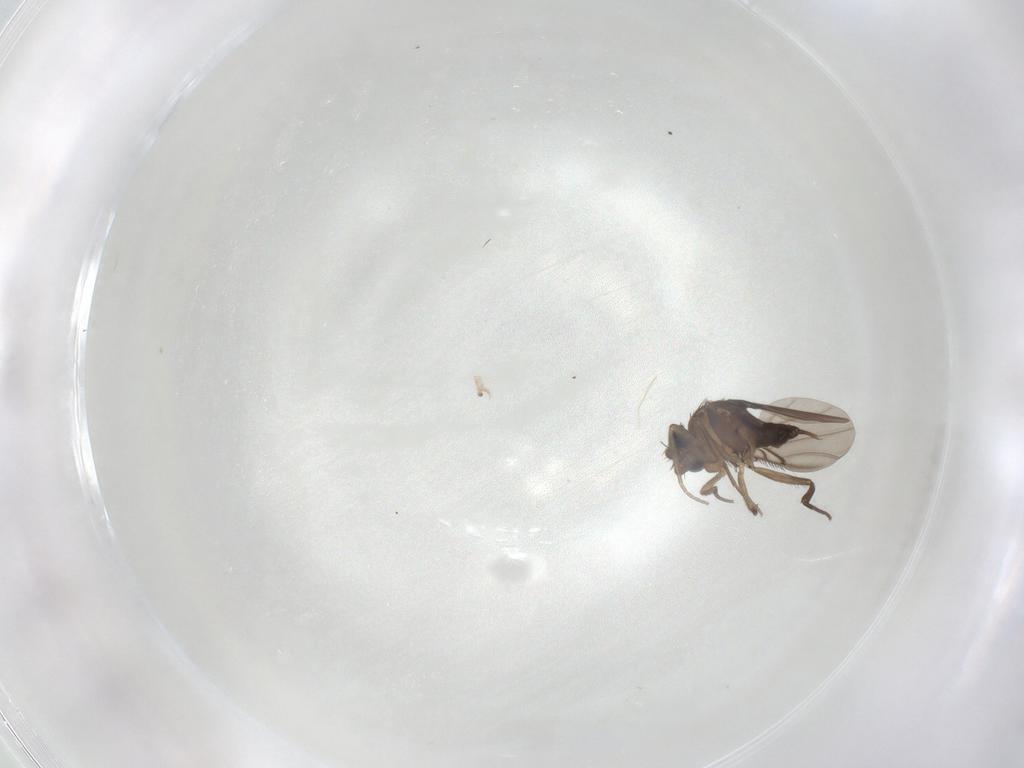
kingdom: Animalia
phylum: Arthropoda
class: Insecta
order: Diptera
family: Phoridae
